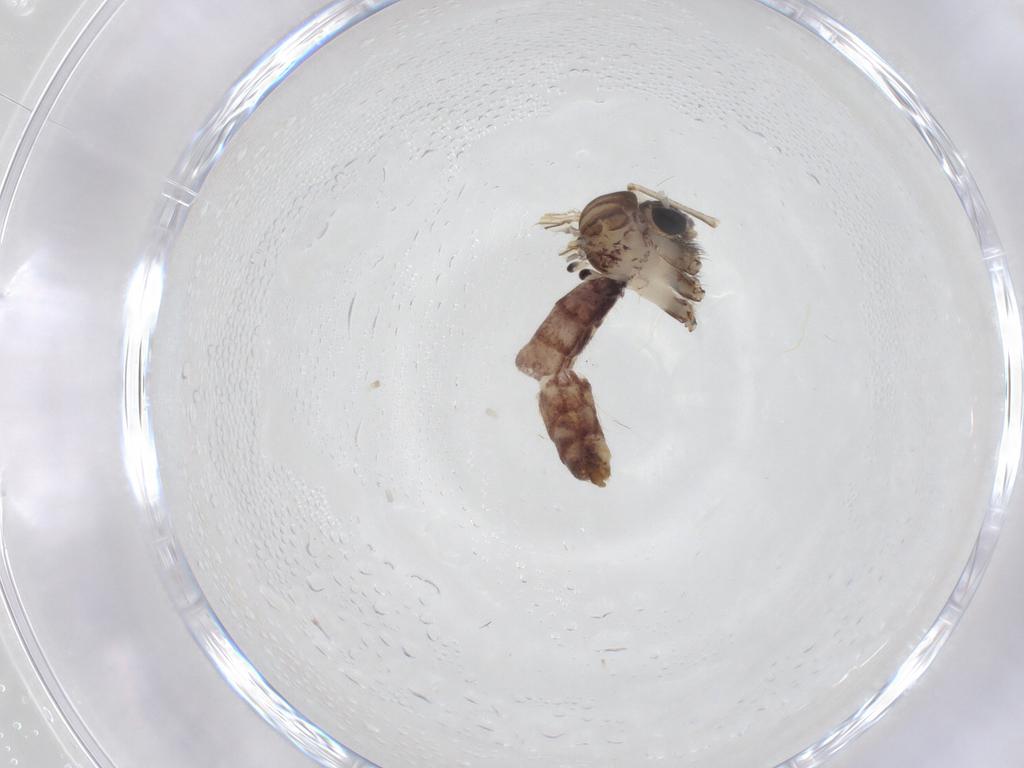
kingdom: Animalia
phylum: Arthropoda
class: Insecta
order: Diptera
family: Mycetophilidae
